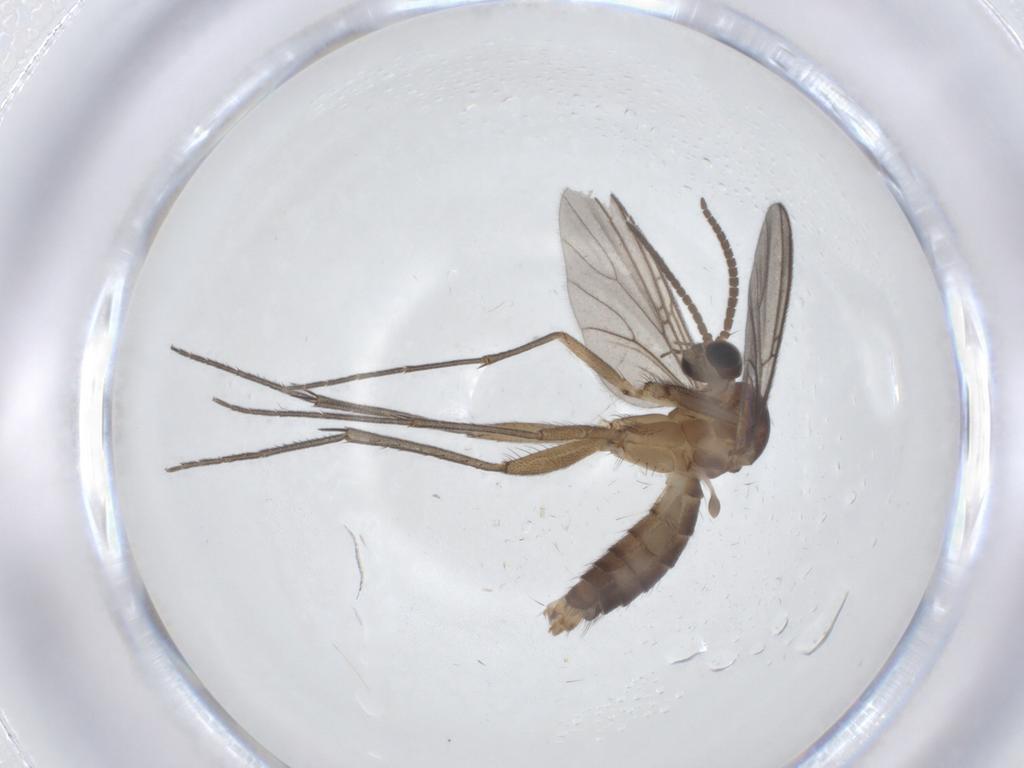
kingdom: Animalia
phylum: Arthropoda
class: Insecta
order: Diptera
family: Mycetophilidae
